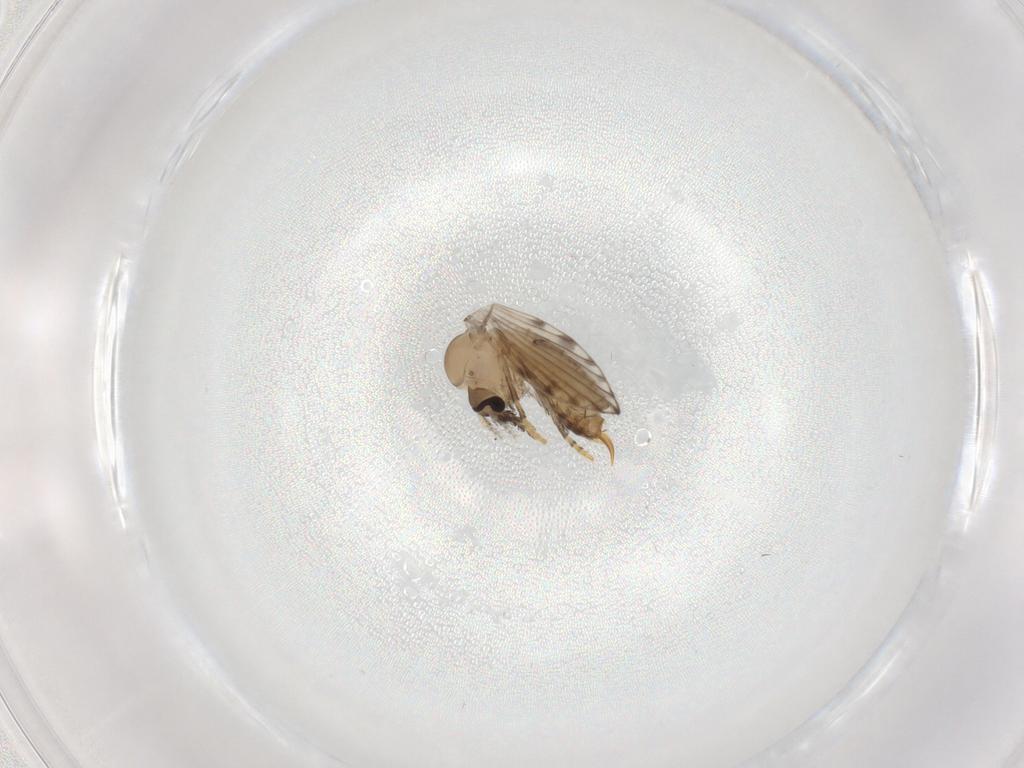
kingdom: Animalia
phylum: Arthropoda
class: Insecta
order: Diptera
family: Psychodidae
